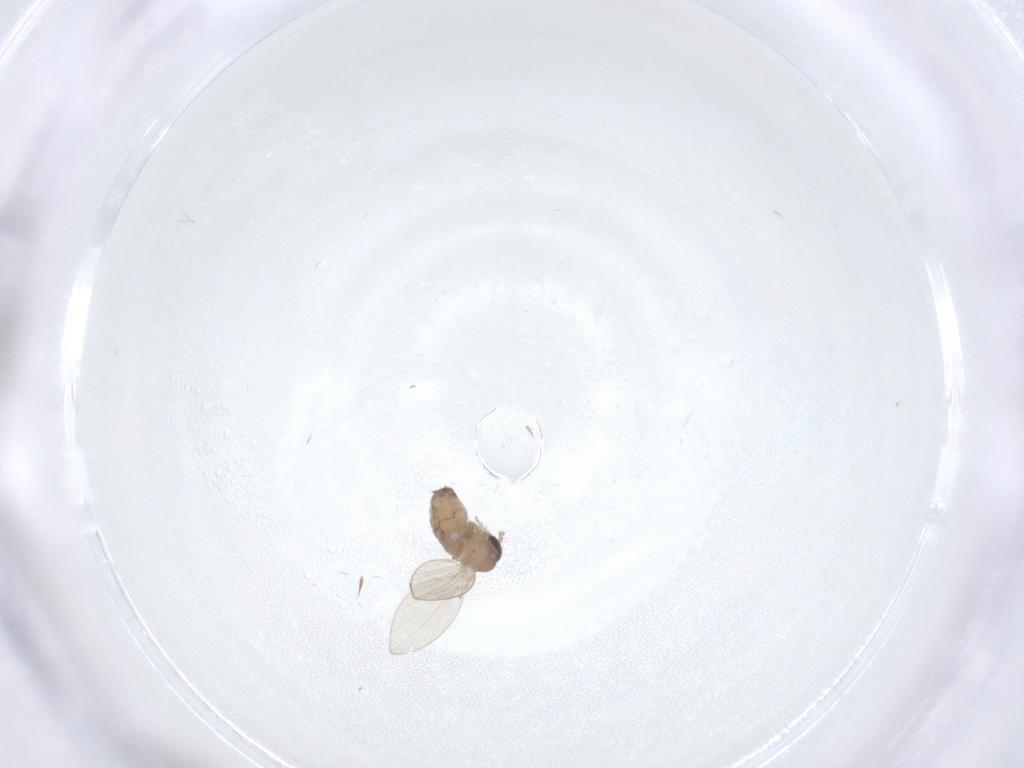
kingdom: Animalia
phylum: Arthropoda
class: Insecta
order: Diptera
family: Psychodidae
